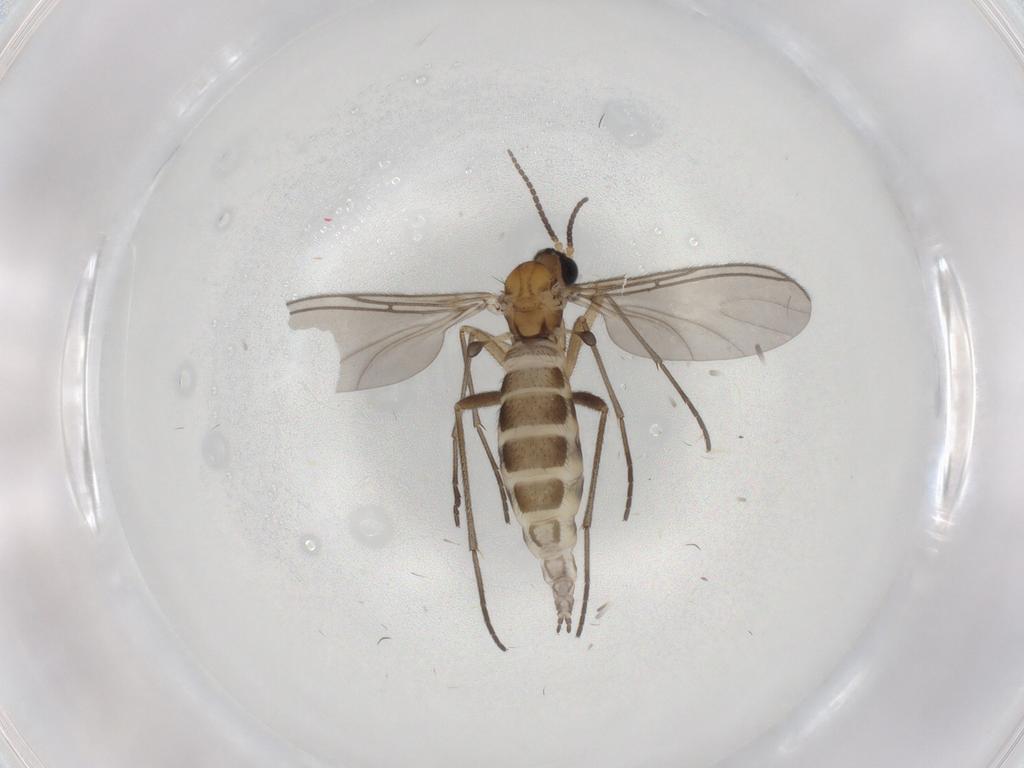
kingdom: Animalia
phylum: Arthropoda
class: Insecta
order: Diptera
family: Sciaridae
